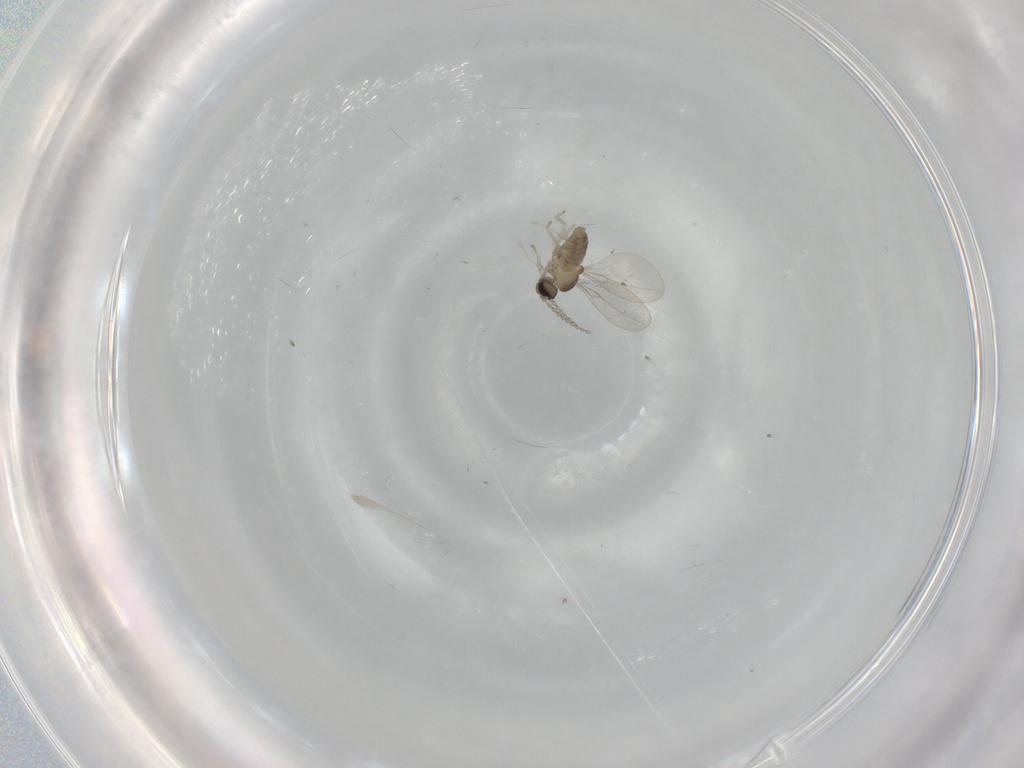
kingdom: Animalia
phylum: Arthropoda
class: Insecta
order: Diptera
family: Cecidomyiidae
